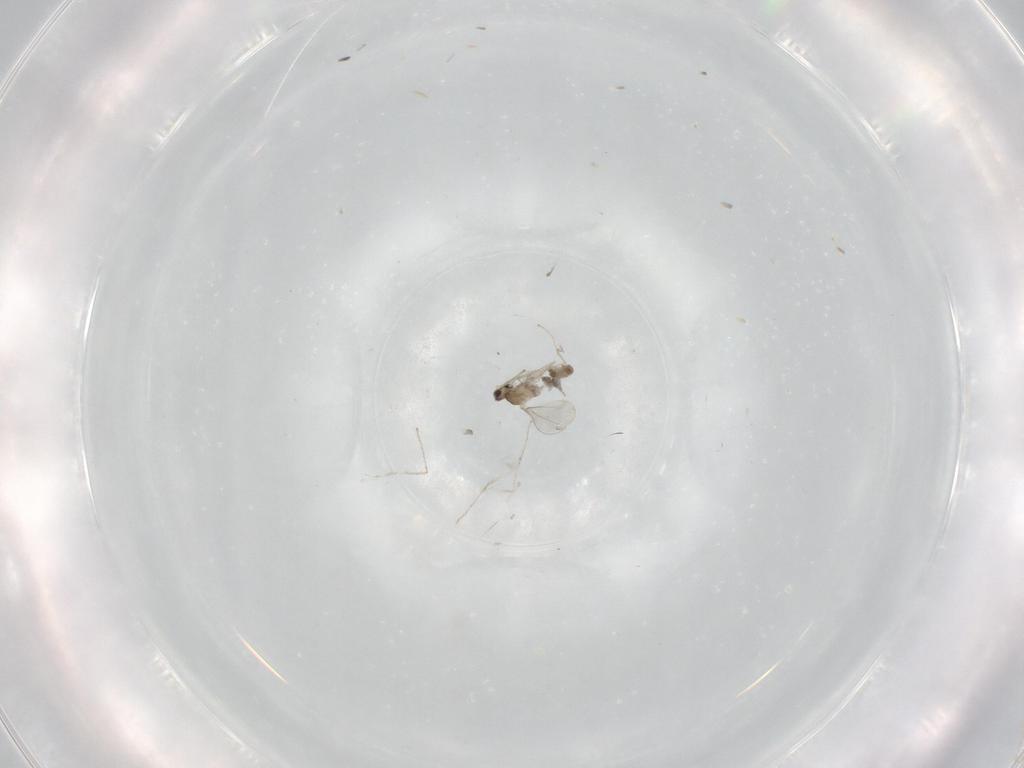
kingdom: Animalia
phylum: Arthropoda
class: Insecta
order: Diptera
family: Cecidomyiidae
